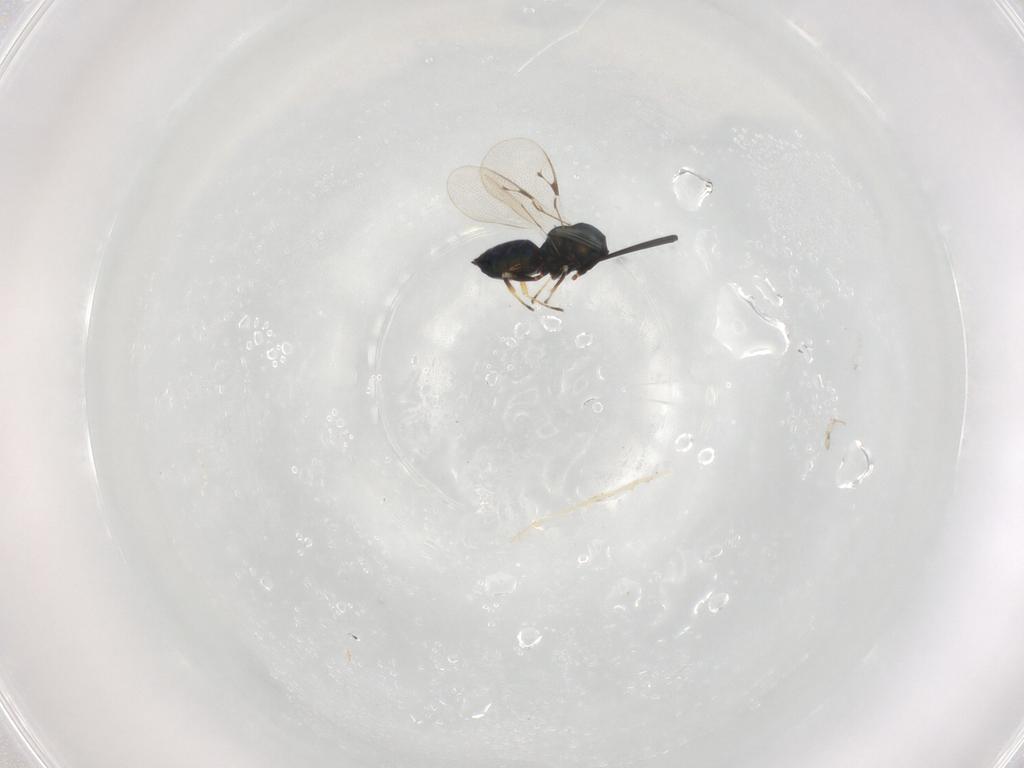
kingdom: Animalia
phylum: Arthropoda
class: Insecta
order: Hymenoptera
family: Pteromalidae
